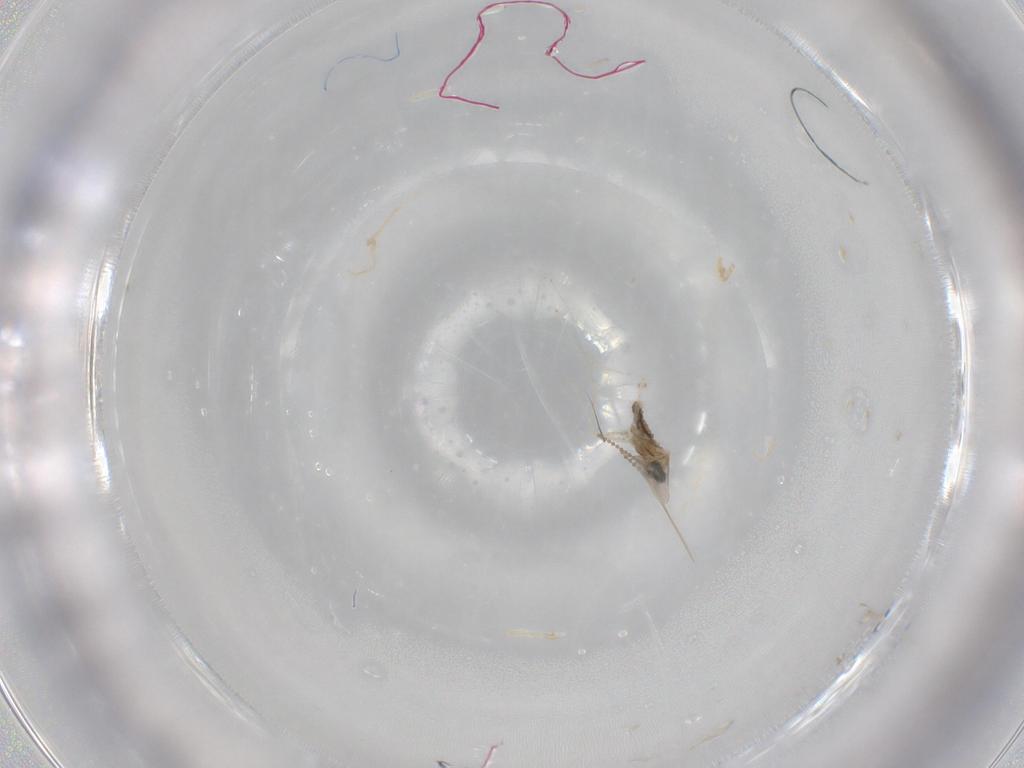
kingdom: Animalia
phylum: Arthropoda
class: Insecta
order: Diptera
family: Cecidomyiidae
